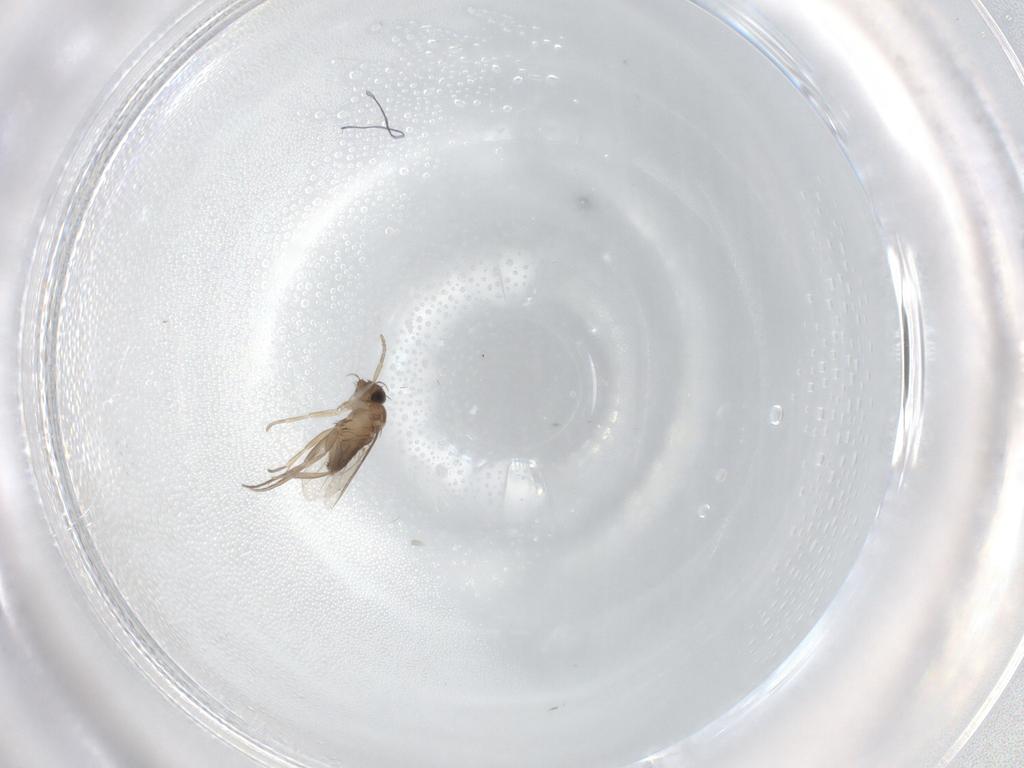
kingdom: Animalia
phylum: Arthropoda
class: Insecta
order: Diptera
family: Phoridae
